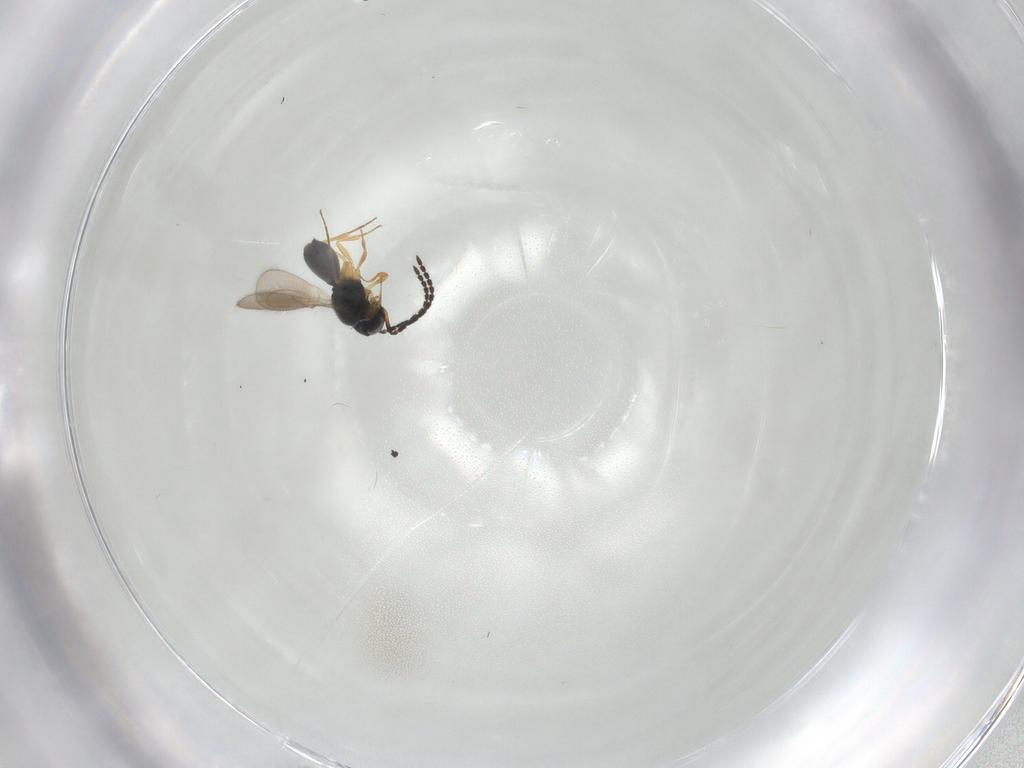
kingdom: Animalia
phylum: Arthropoda
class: Insecta
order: Hymenoptera
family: Scelionidae
